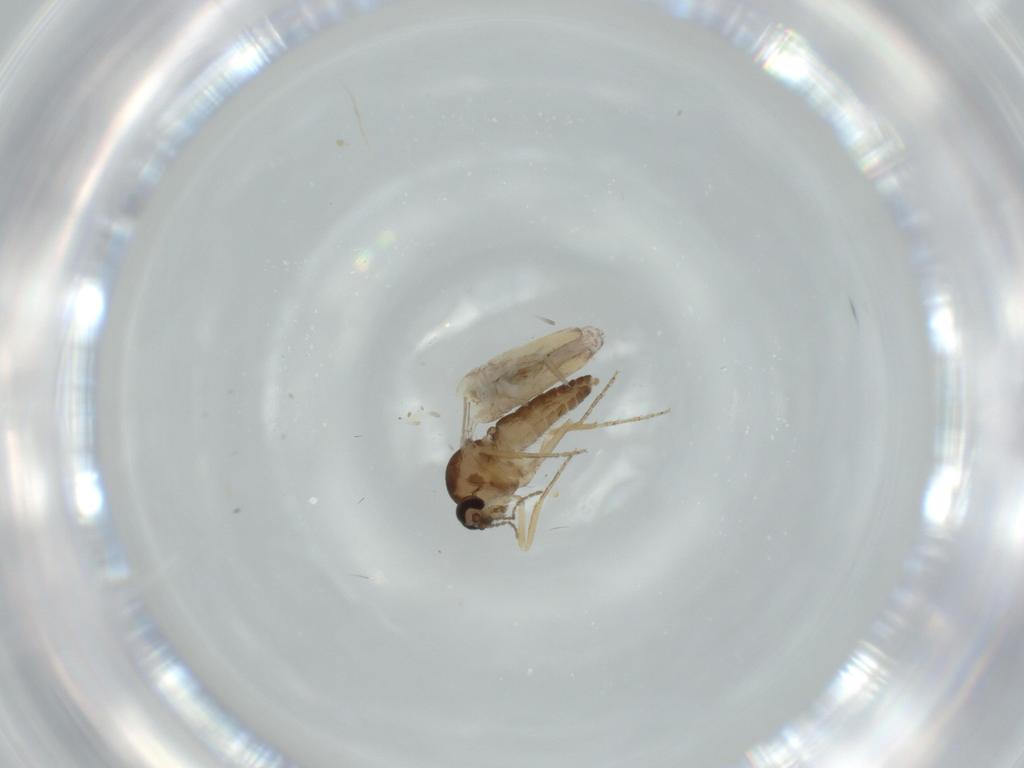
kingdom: Animalia
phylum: Arthropoda
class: Insecta
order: Diptera
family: Ceratopogonidae
